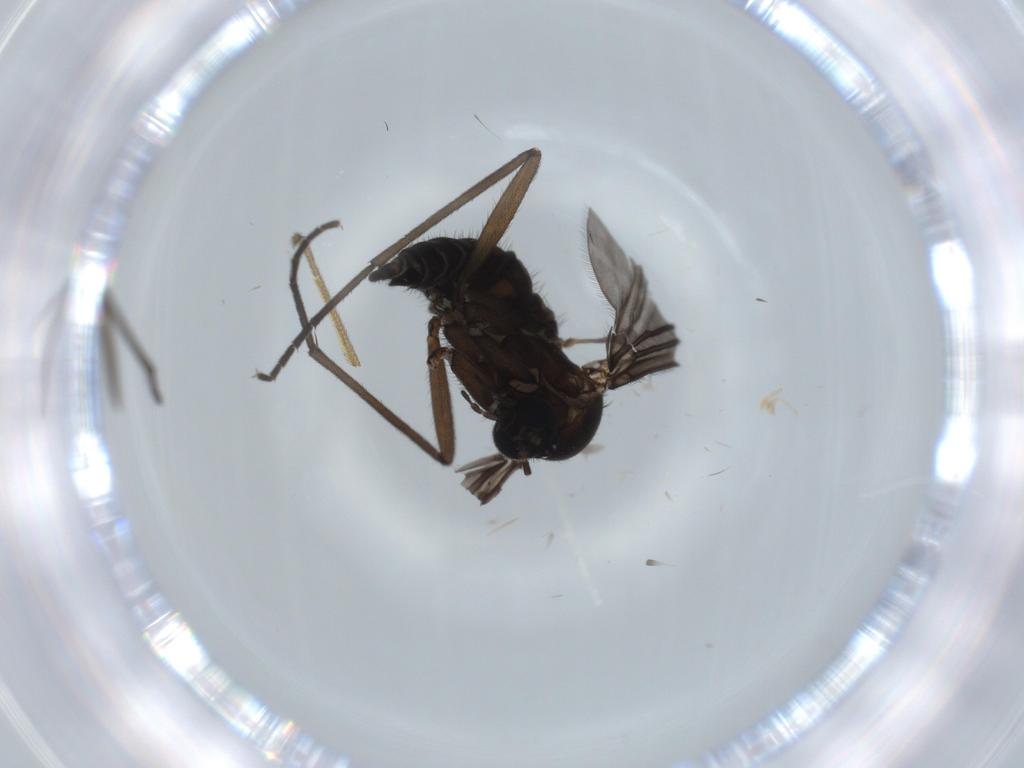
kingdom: Animalia
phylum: Arthropoda
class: Insecta
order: Diptera
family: Sciaridae
